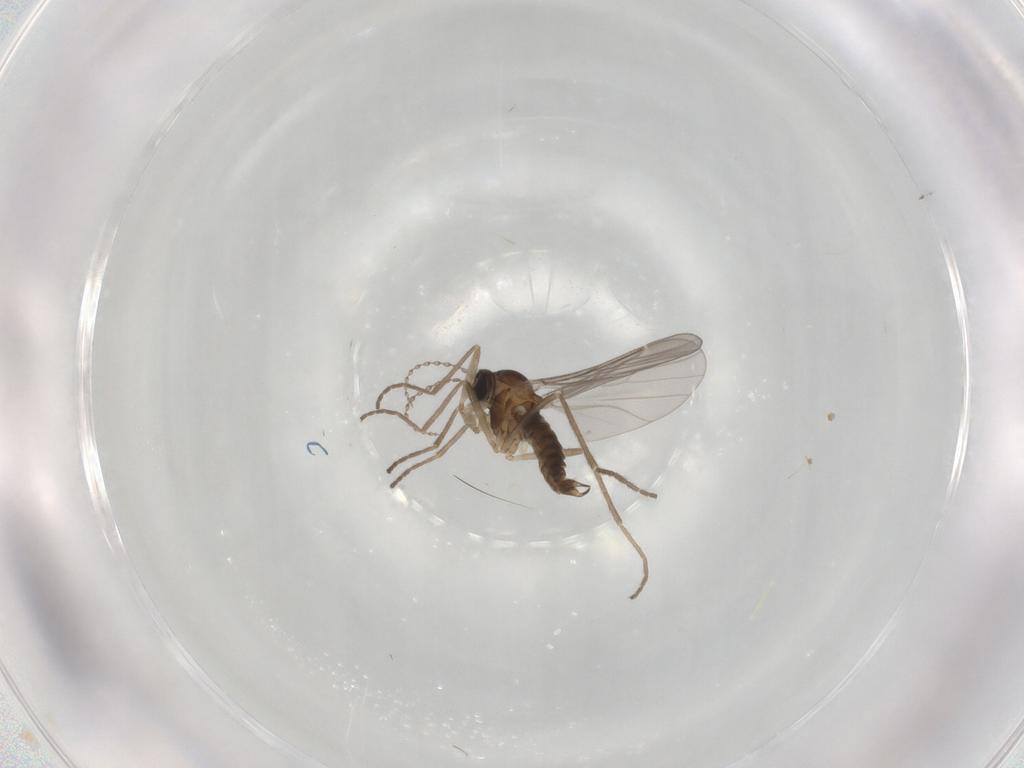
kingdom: Animalia
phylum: Arthropoda
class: Insecta
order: Diptera
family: Cecidomyiidae
